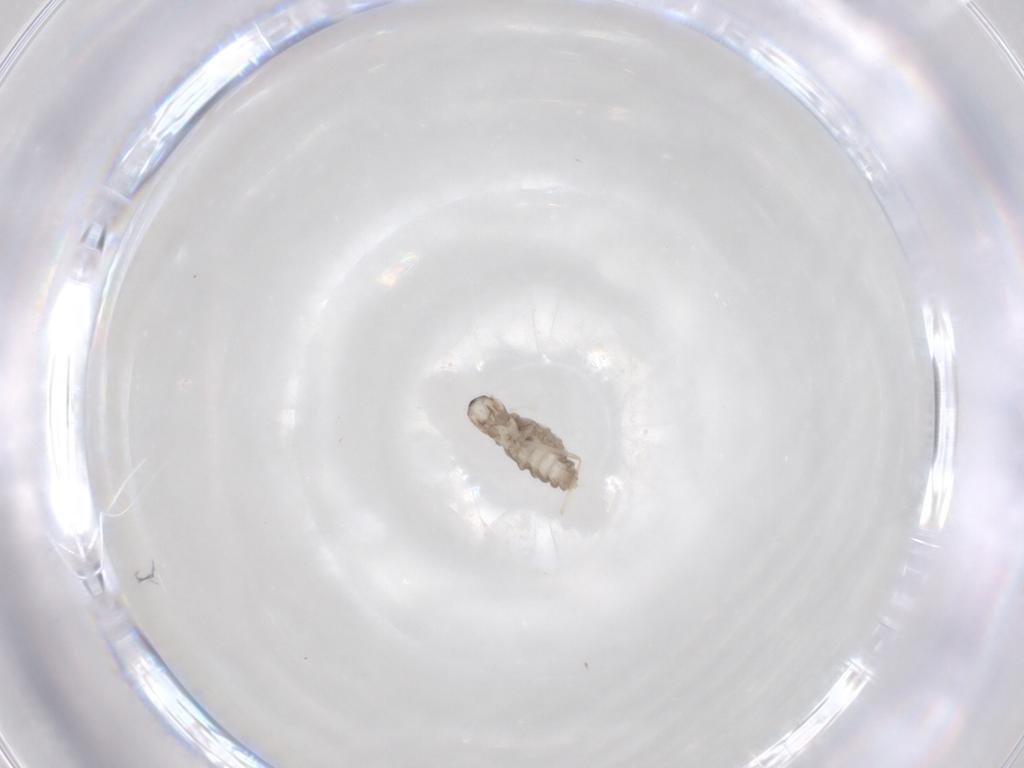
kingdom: Animalia
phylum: Arthropoda
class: Insecta
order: Diptera
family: Cecidomyiidae
